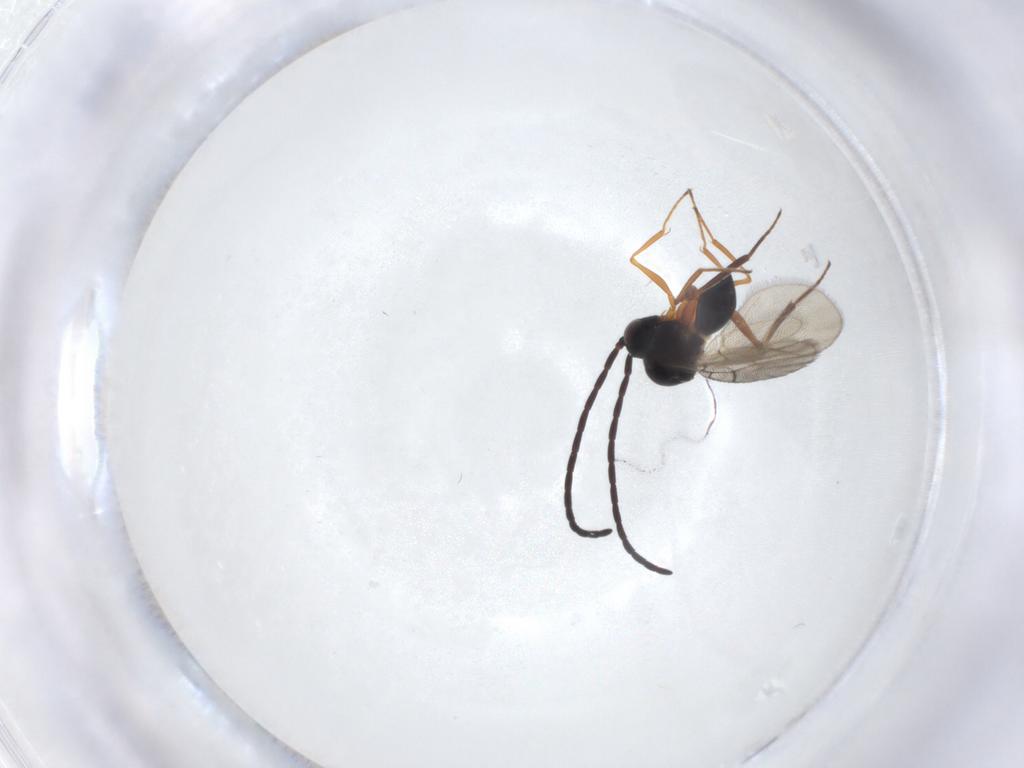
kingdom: Animalia
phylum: Arthropoda
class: Insecta
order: Hymenoptera
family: Figitidae
